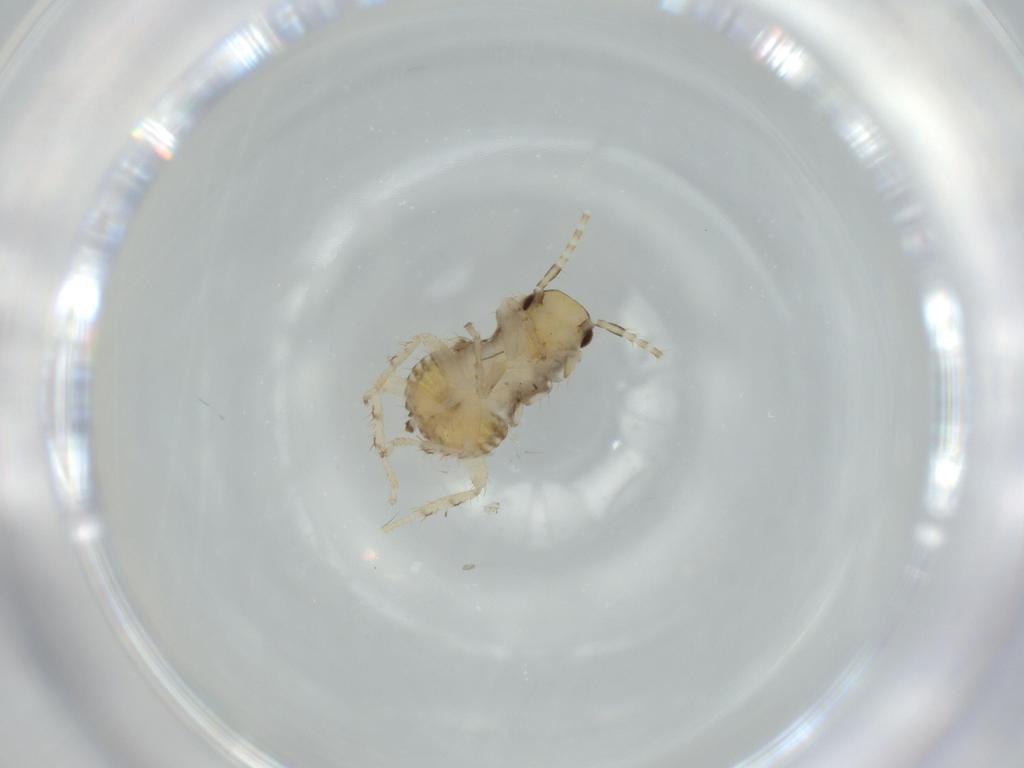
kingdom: Animalia
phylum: Arthropoda
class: Insecta
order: Blattodea
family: Ectobiidae
